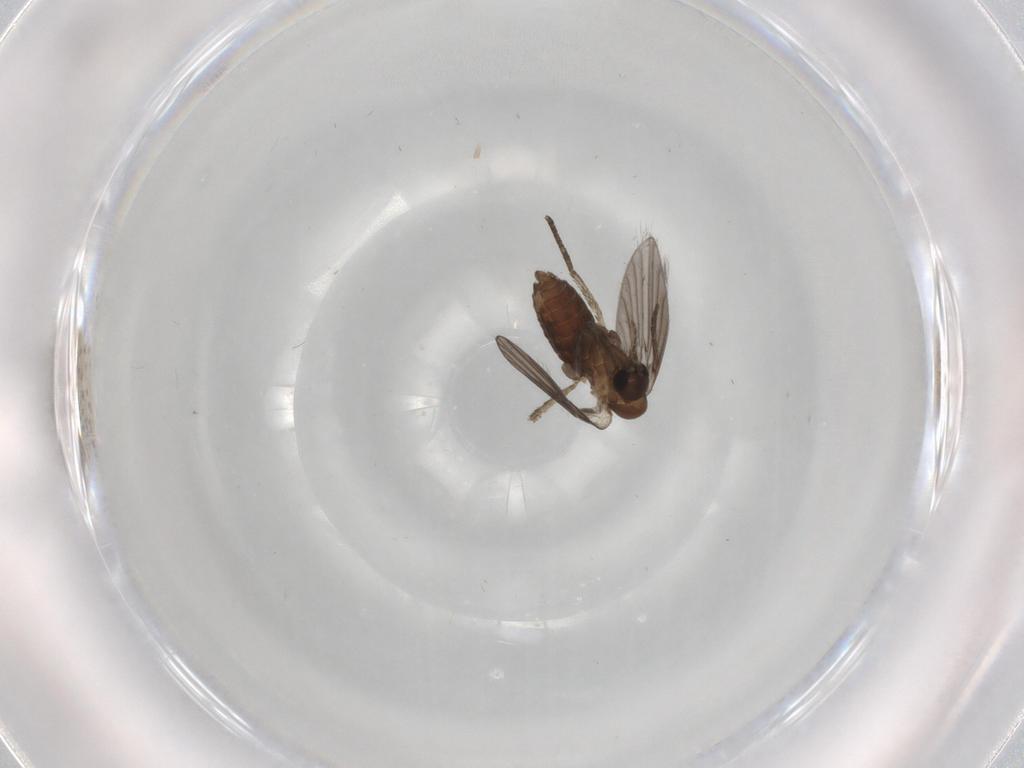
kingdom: Animalia
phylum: Arthropoda
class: Insecta
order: Diptera
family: Psychodidae
